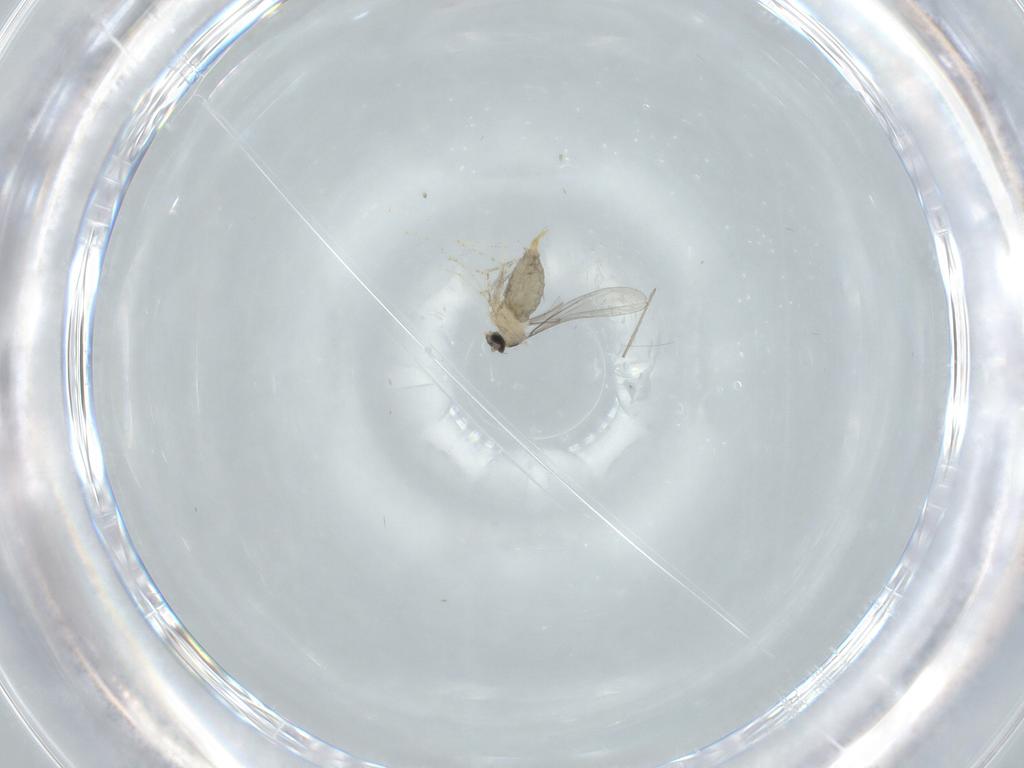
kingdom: Animalia
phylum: Arthropoda
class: Insecta
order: Diptera
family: Cecidomyiidae
